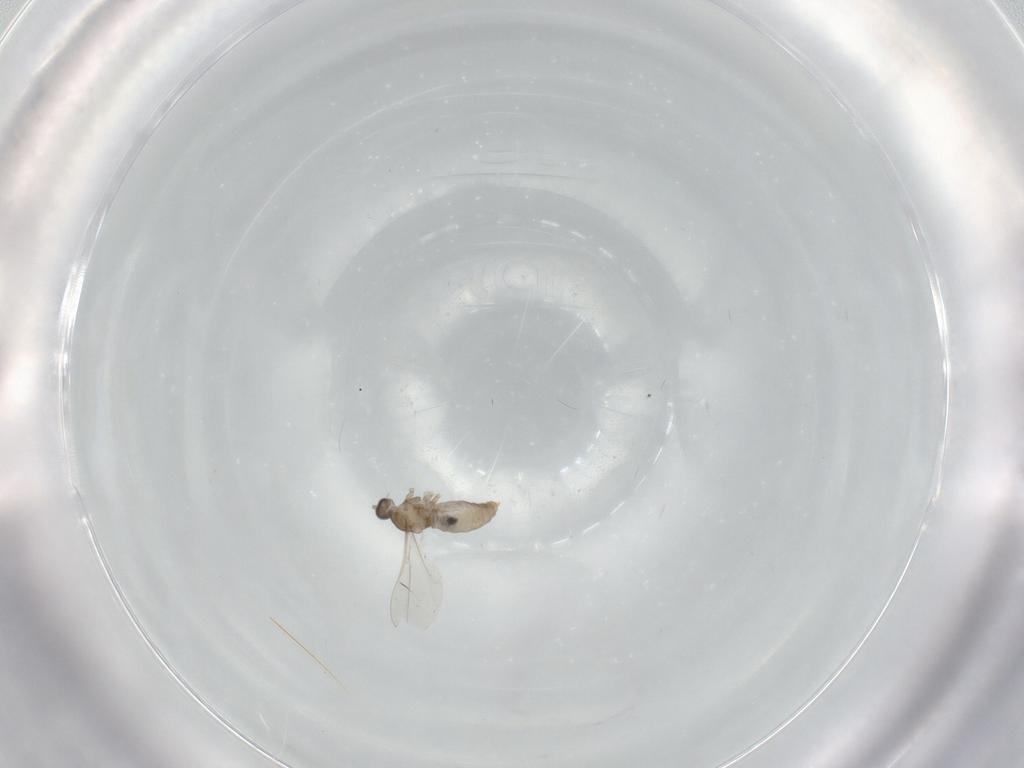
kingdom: Animalia
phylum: Arthropoda
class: Insecta
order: Diptera
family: Cecidomyiidae
